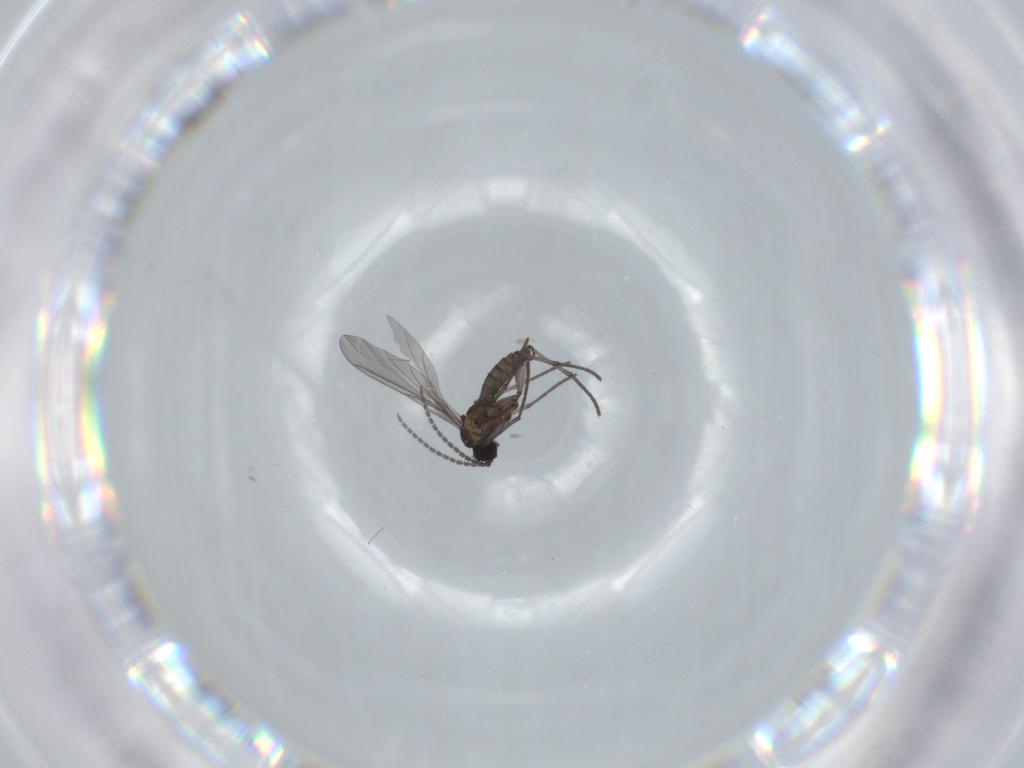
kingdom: Animalia
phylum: Arthropoda
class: Insecta
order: Diptera
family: Sciaridae
